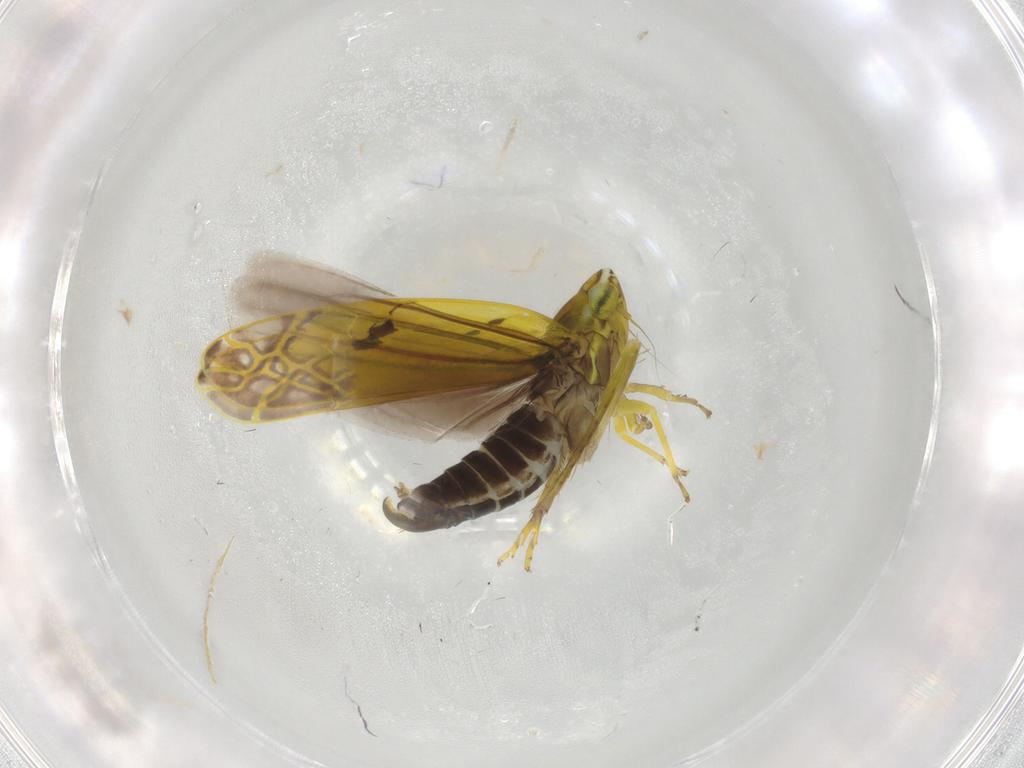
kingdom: Animalia
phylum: Arthropoda
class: Insecta
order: Hemiptera
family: Cicadellidae
